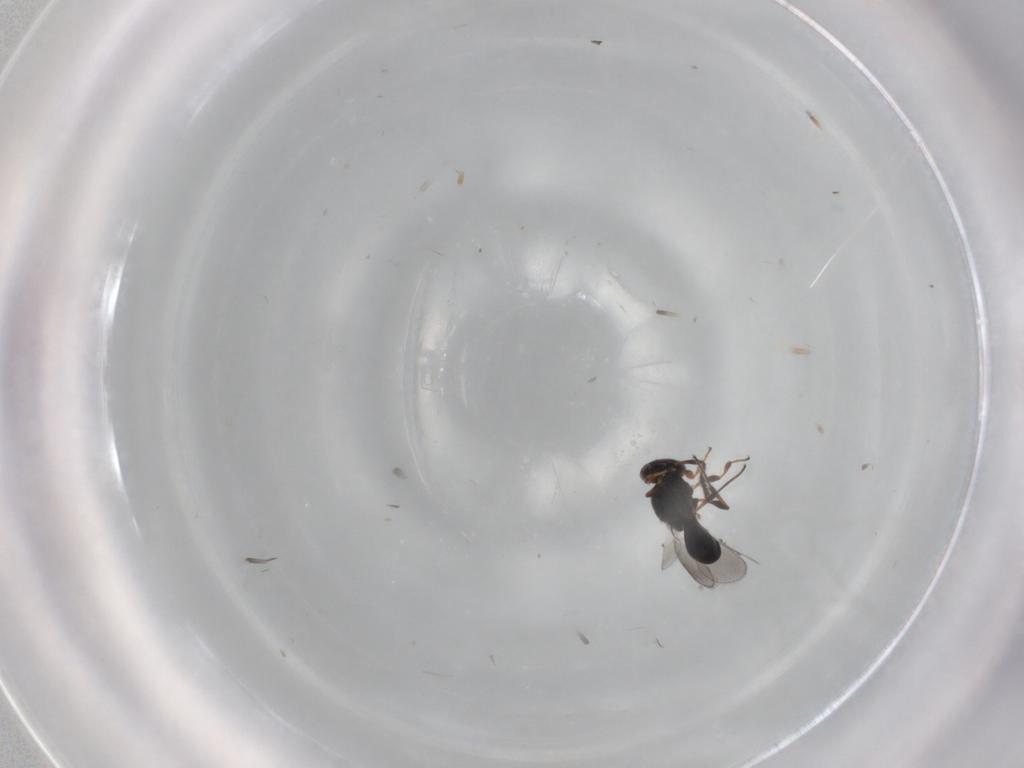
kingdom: Animalia
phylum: Arthropoda
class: Insecta
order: Hymenoptera
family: Platygastridae
